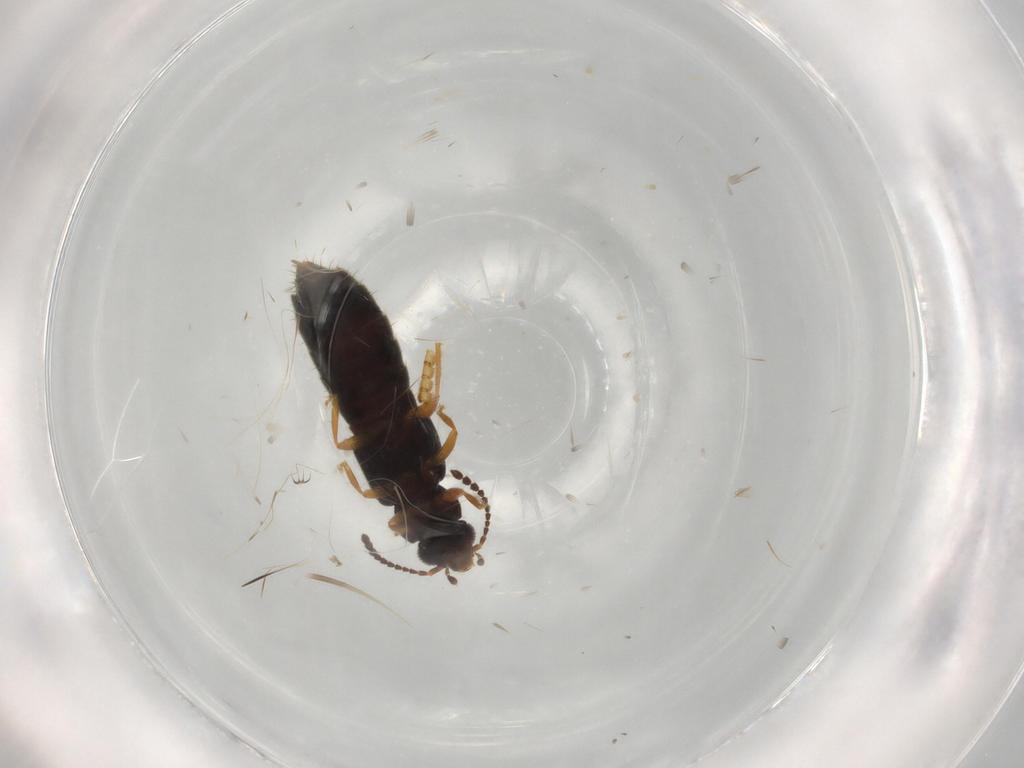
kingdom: Animalia
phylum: Arthropoda
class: Insecta
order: Coleoptera
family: Staphylinidae
